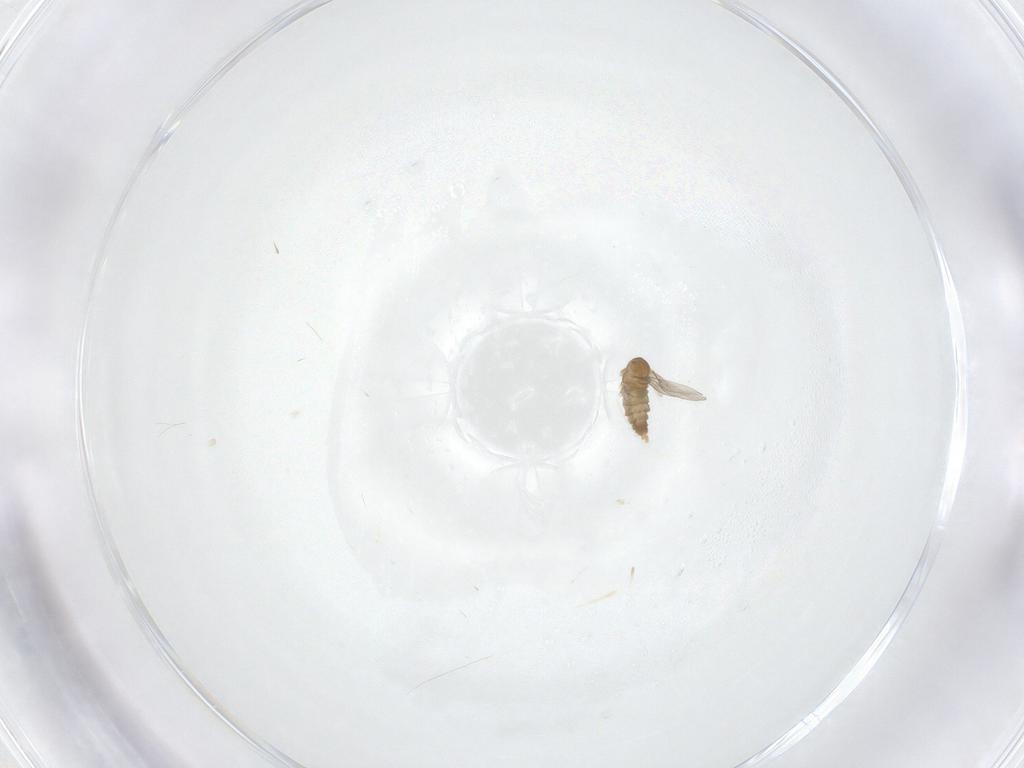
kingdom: Animalia
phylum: Arthropoda
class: Insecta
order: Diptera
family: Cecidomyiidae
